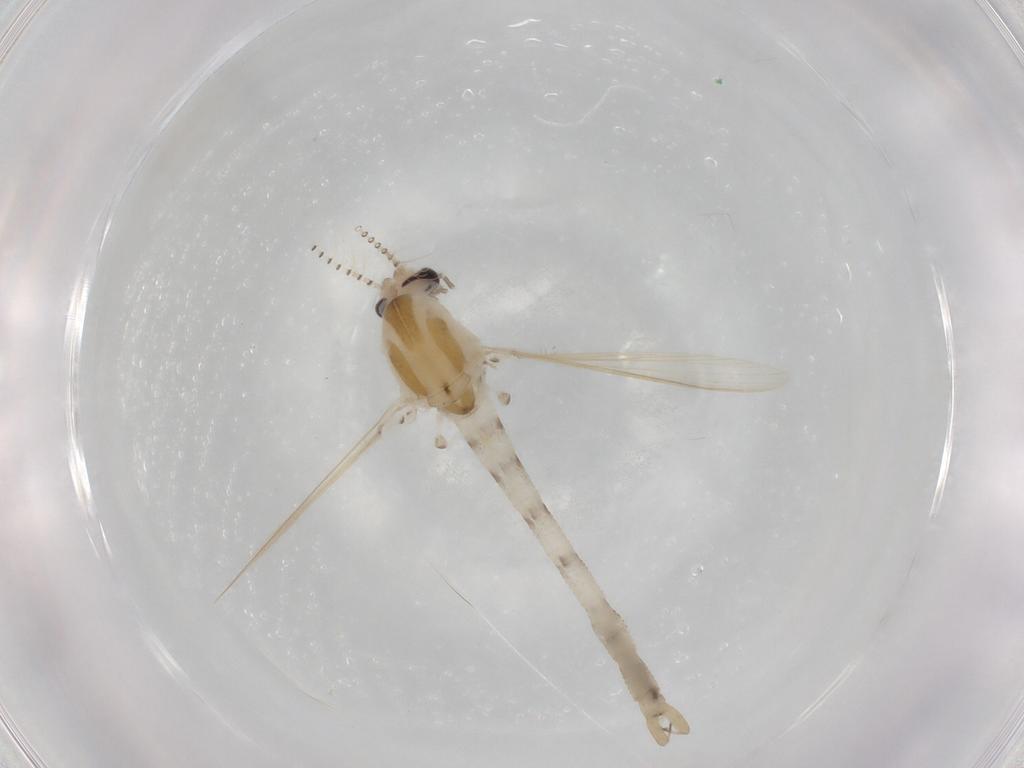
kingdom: Animalia
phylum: Arthropoda
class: Insecta
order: Diptera
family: Chaoboridae
